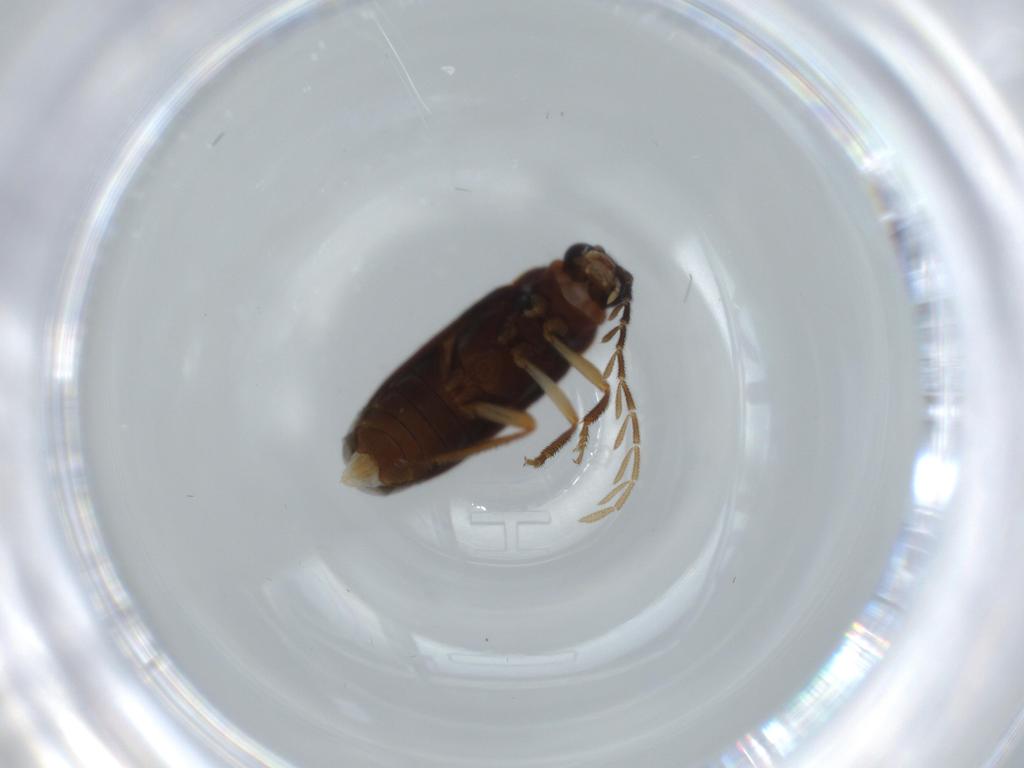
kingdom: Animalia
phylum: Arthropoda
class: Insecta
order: Coleoptera
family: Ptilodactylidae
